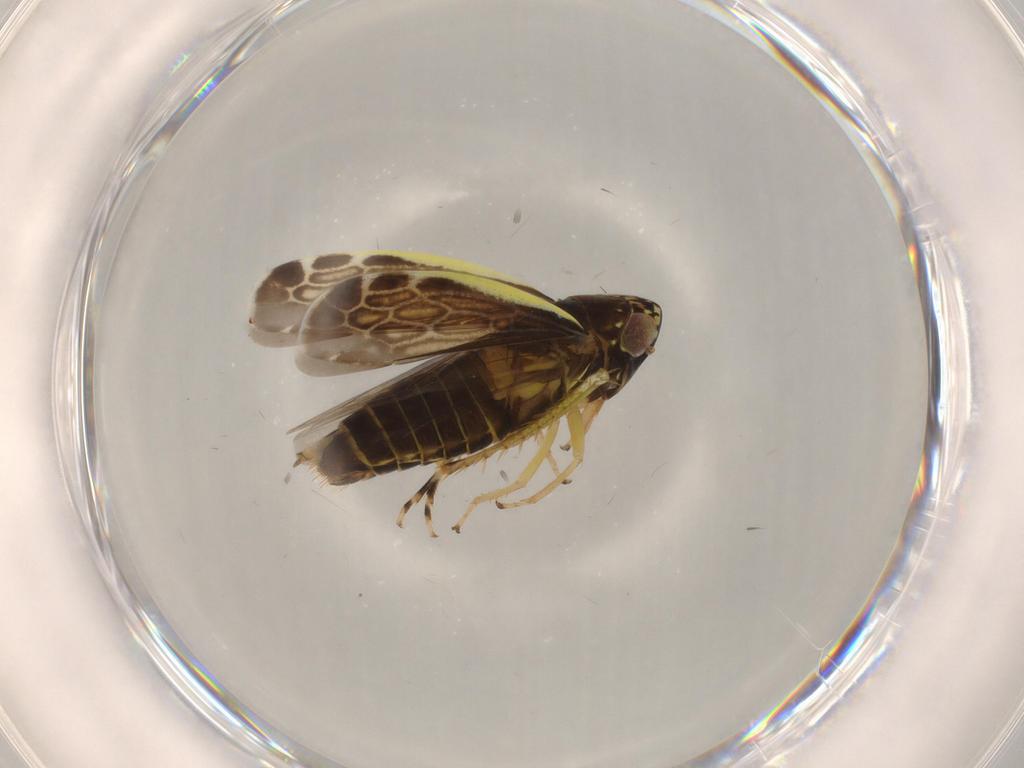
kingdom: Animalia
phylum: Arthropoda
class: Insecta
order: Hemiptera
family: Cicadellidae
